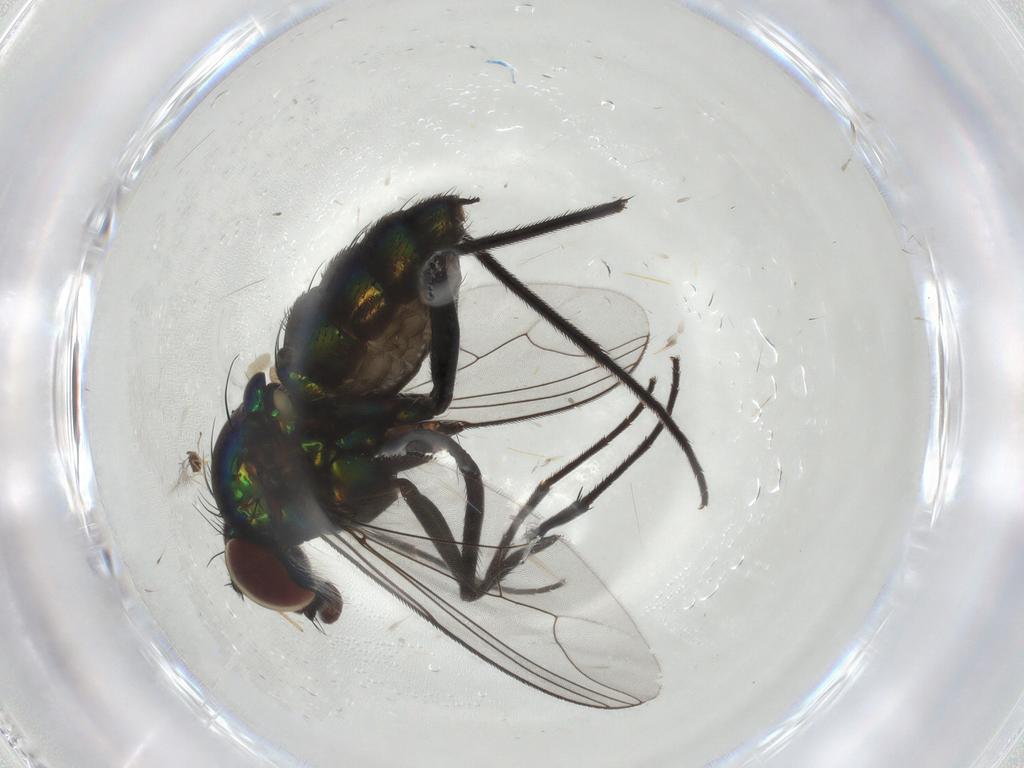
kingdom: Animalia
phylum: Arthropoda
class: Insecta
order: Diptera
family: Dolichopodidae
